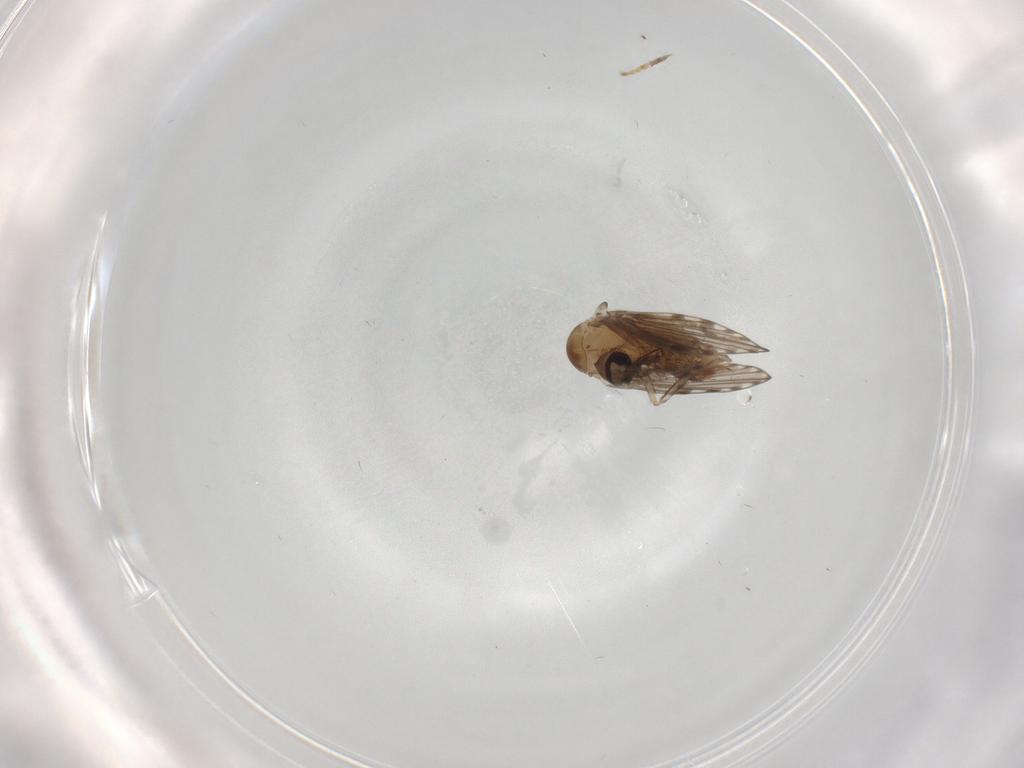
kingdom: Animalia
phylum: Arthropoda
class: Insecta
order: Diptera
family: Psychodidae
